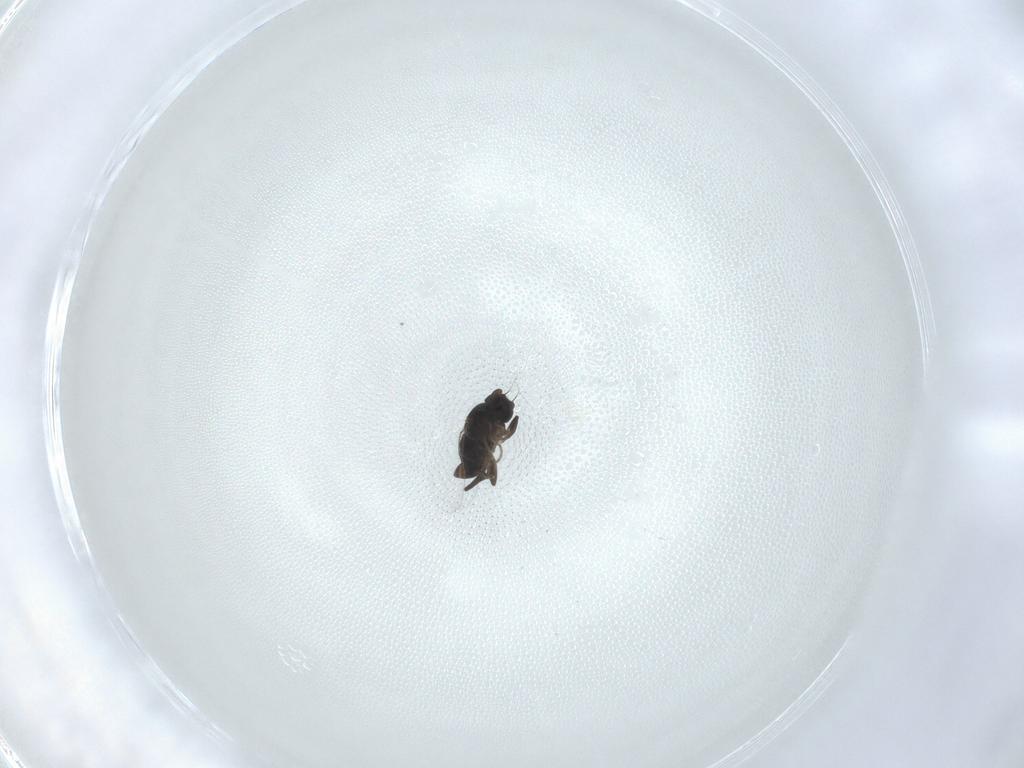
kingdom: Animalia
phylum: Arthropoda
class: Insecta
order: Diptera
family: Phoridae
